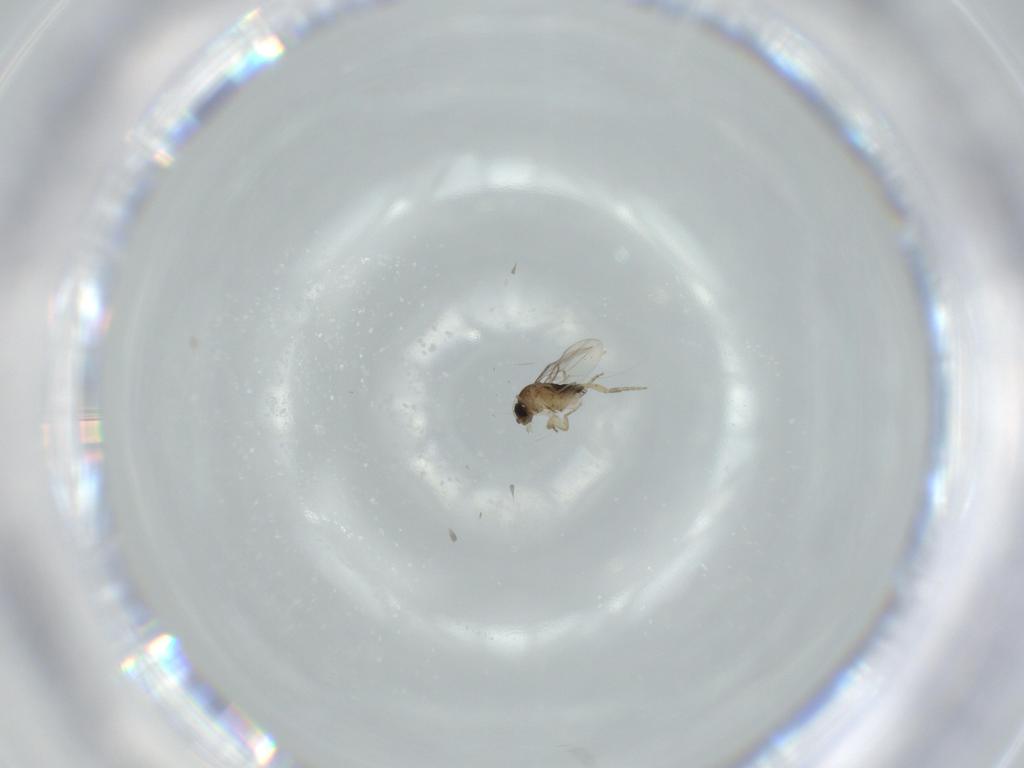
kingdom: Animalia
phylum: Arthropoda
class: Insecta
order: Diptera
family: Phoridae
